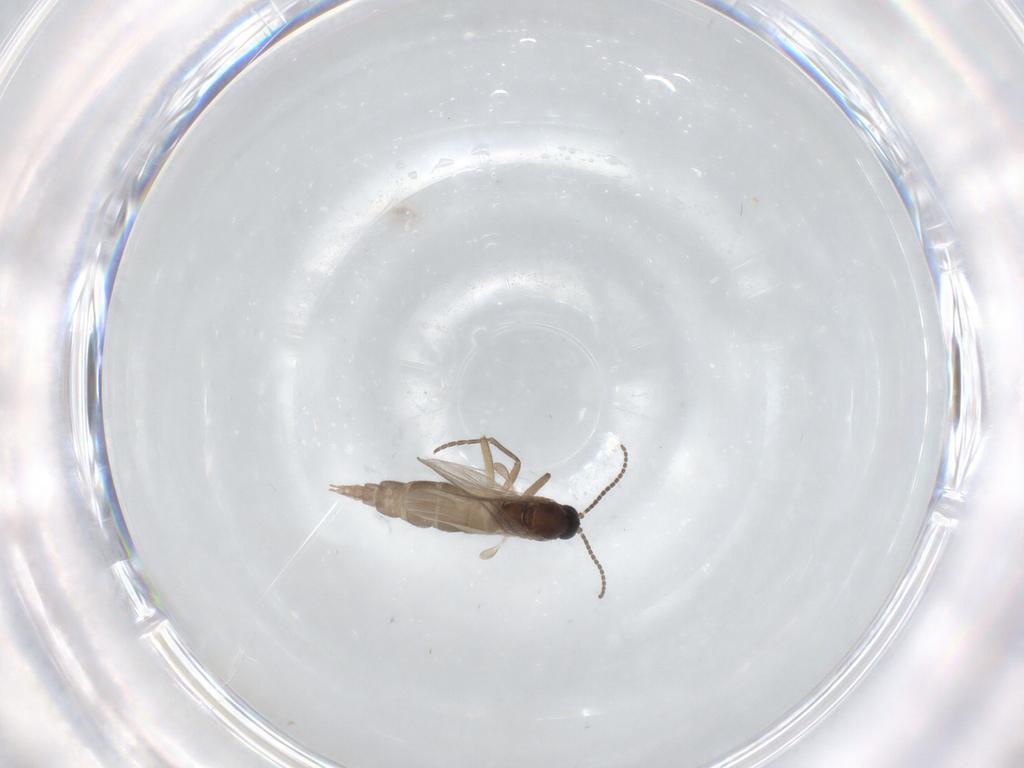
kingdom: Animalia
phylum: Arthropoda
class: Insecta
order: Diptera
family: Sciaridae
